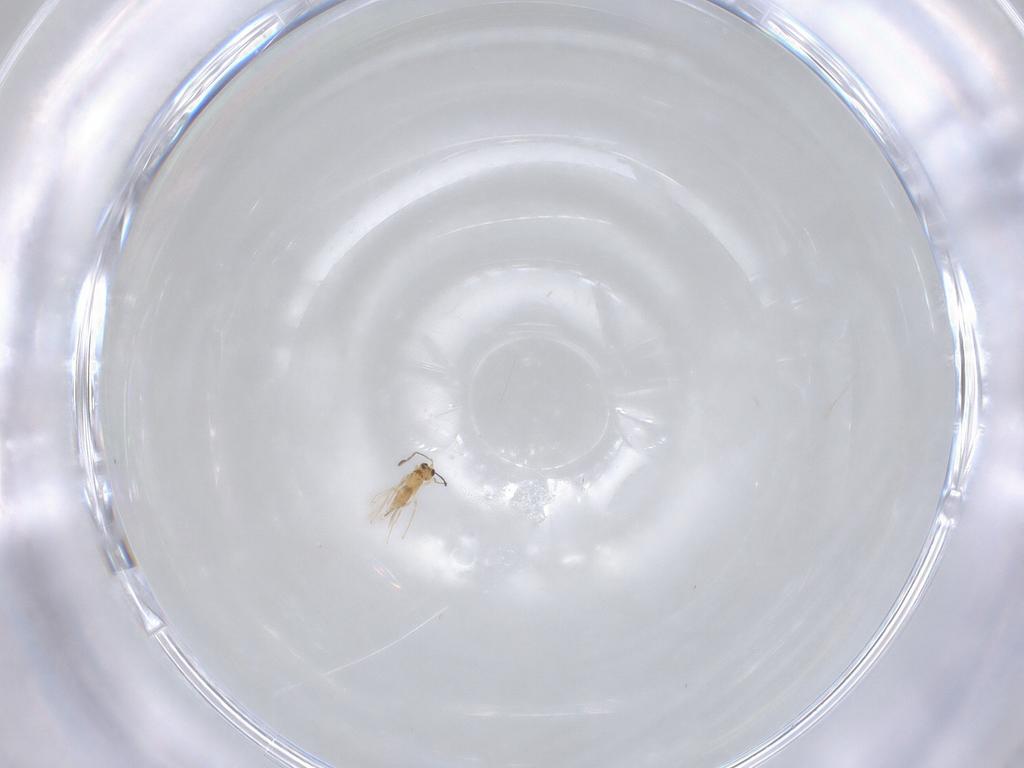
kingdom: Animalia
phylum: Arthropoda
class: Insecta
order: Hymenoptera
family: Mymaridae
